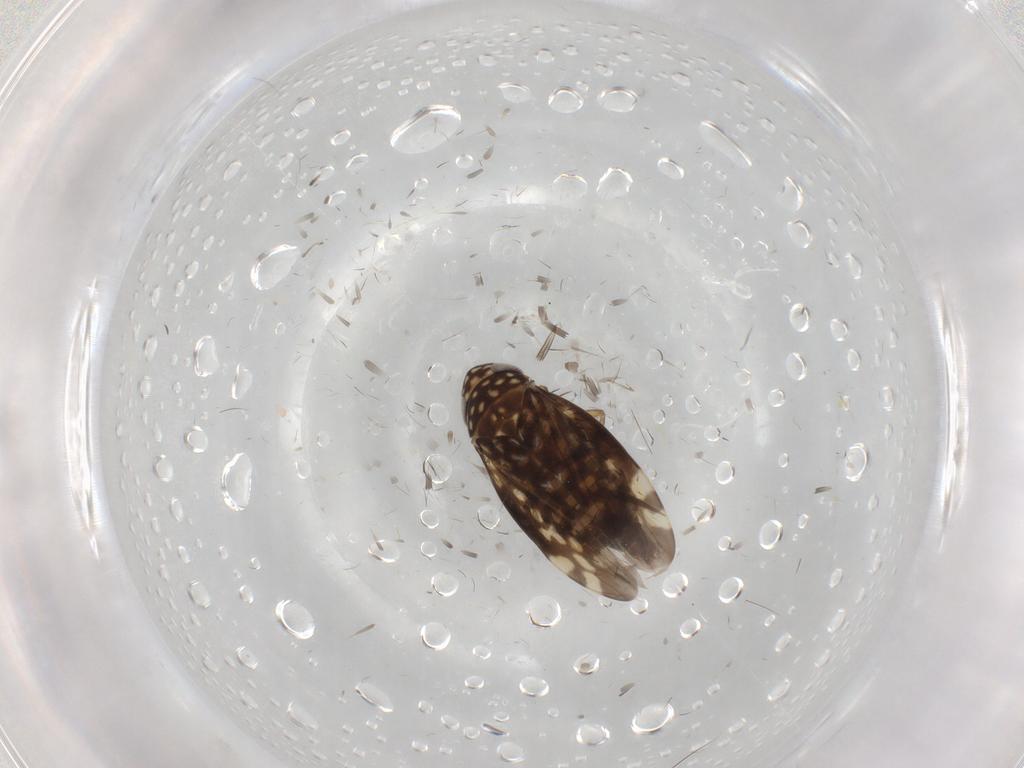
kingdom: Animalia
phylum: Arthropoda
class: Insecta
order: Hemiptera
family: Cicadellidae
